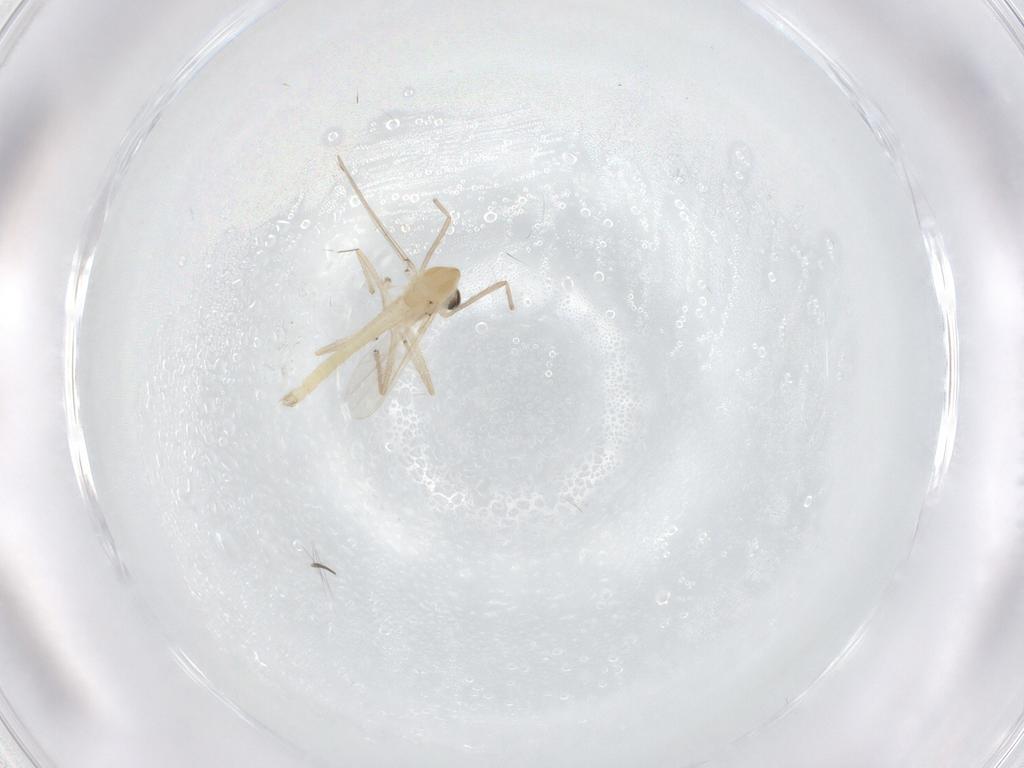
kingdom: Animalia
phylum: Arthropoda
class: Insecta
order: Diptera
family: Chironomidae
